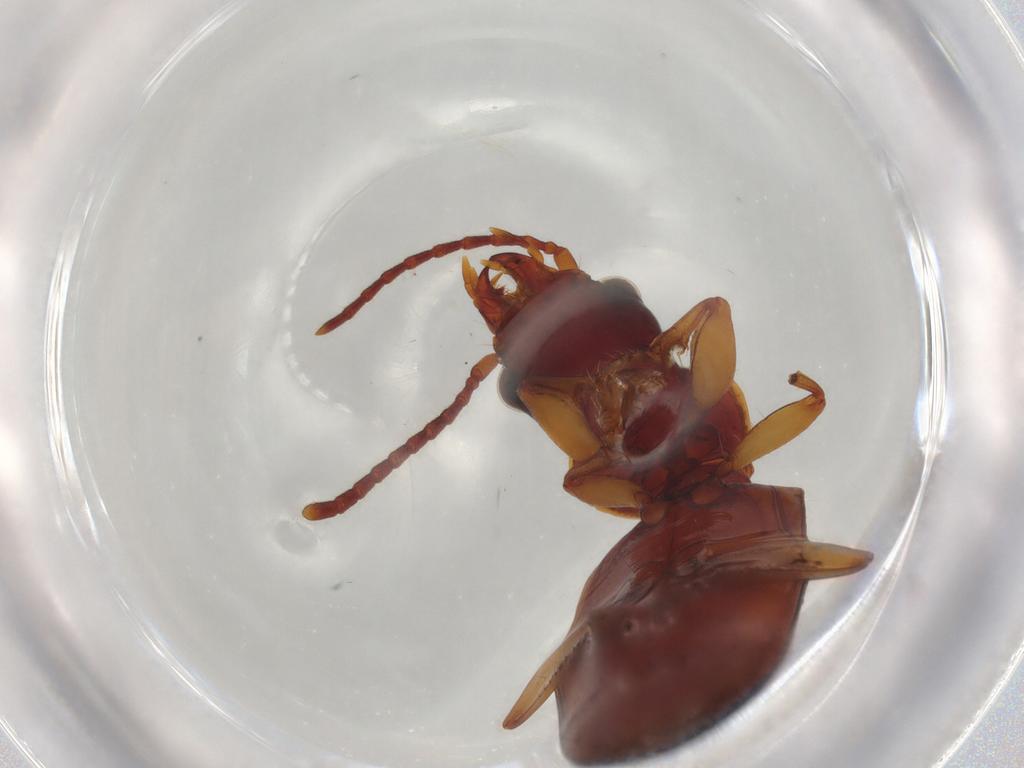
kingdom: Animalia
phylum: Arthropoda
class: Insecta
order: Coleoptera
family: Carabidae
